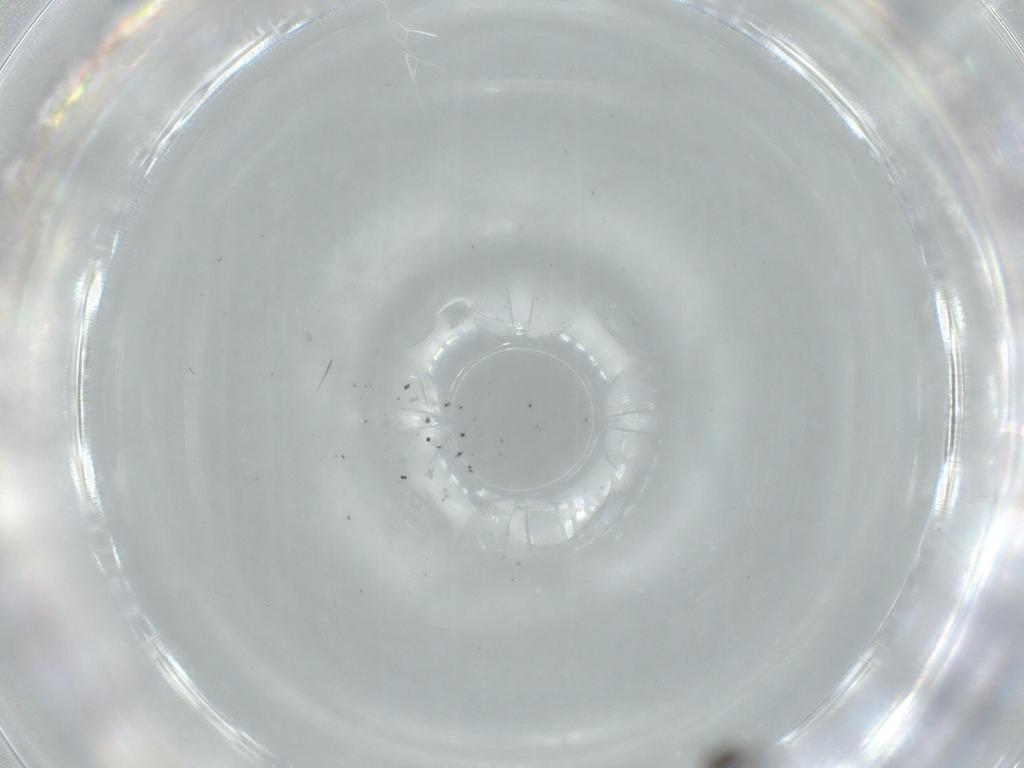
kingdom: Animalia
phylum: Arthropoda
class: Insecta
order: Diptera
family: Cecidomyiidae
